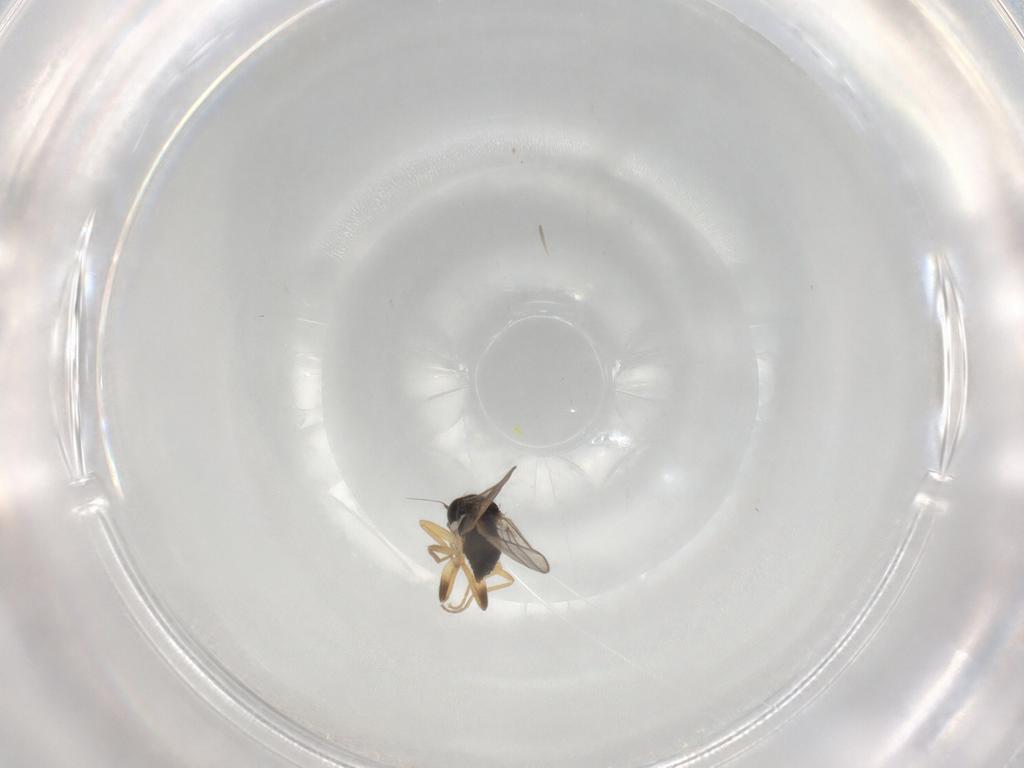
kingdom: Animalia
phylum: Arthropoda
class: Insecta
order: Diptera
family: Hybotidae
